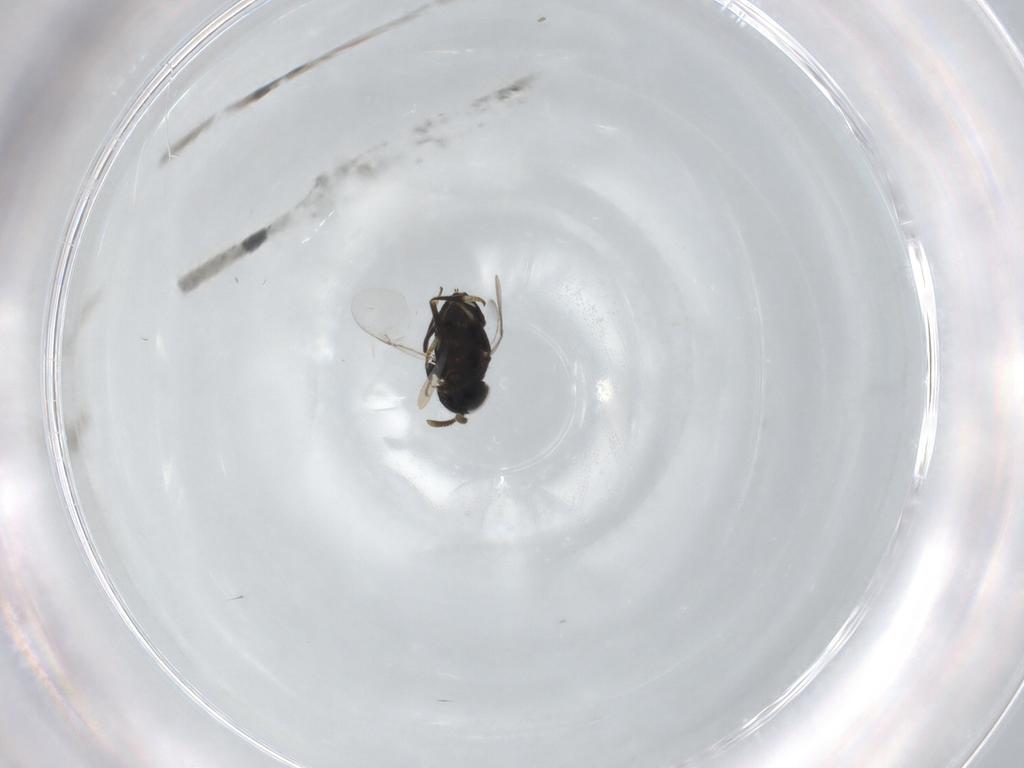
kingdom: Animalia
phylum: Arthropoda
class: Insecta
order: Hymenoptera
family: Encyrtidae
